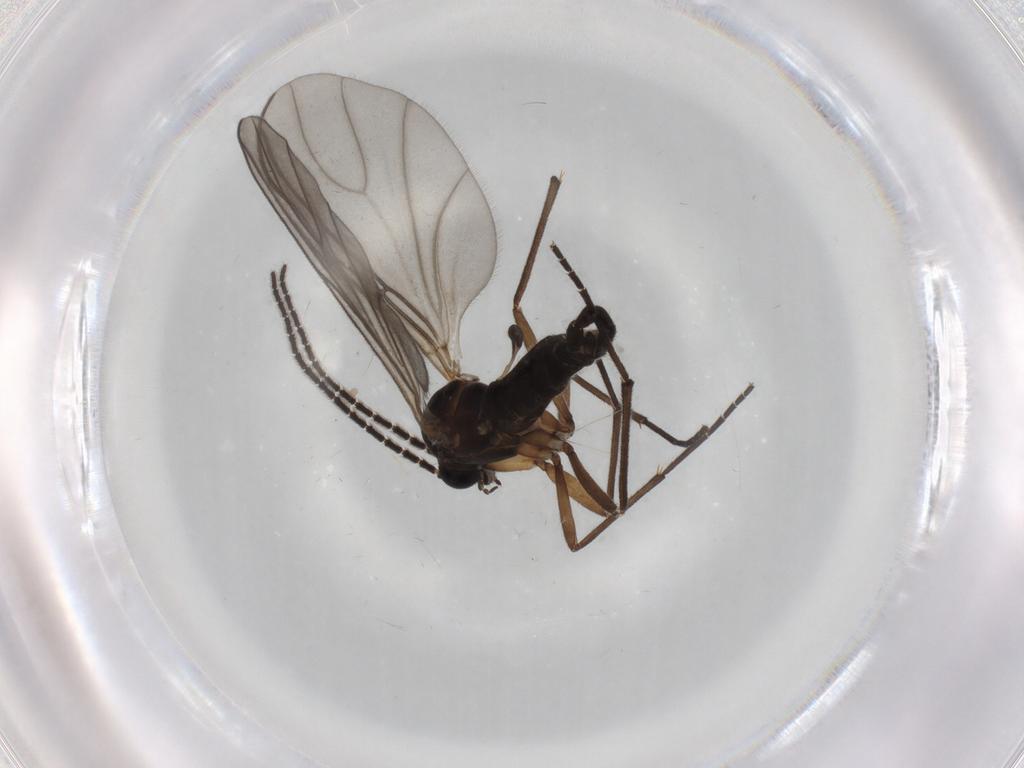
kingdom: Animalia
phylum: Arthropoda
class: Insecta
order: Diptera
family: Sciaridae
